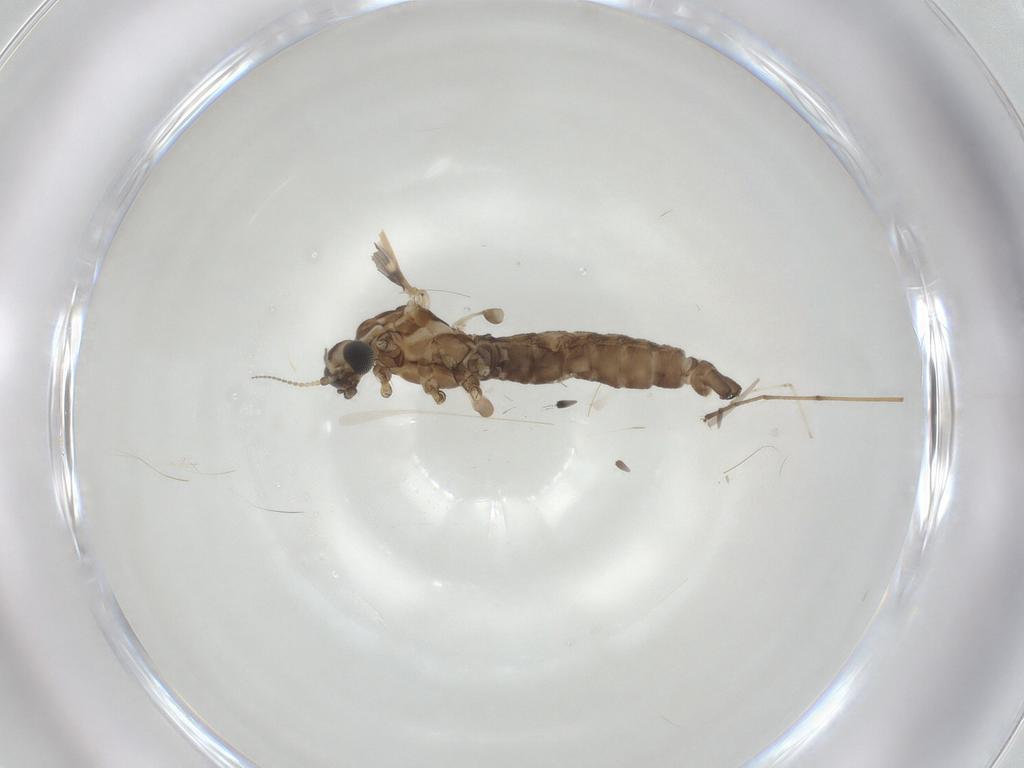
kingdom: Animalia
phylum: Arthropoda
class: Insecta
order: Diptera
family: Limoniidae
